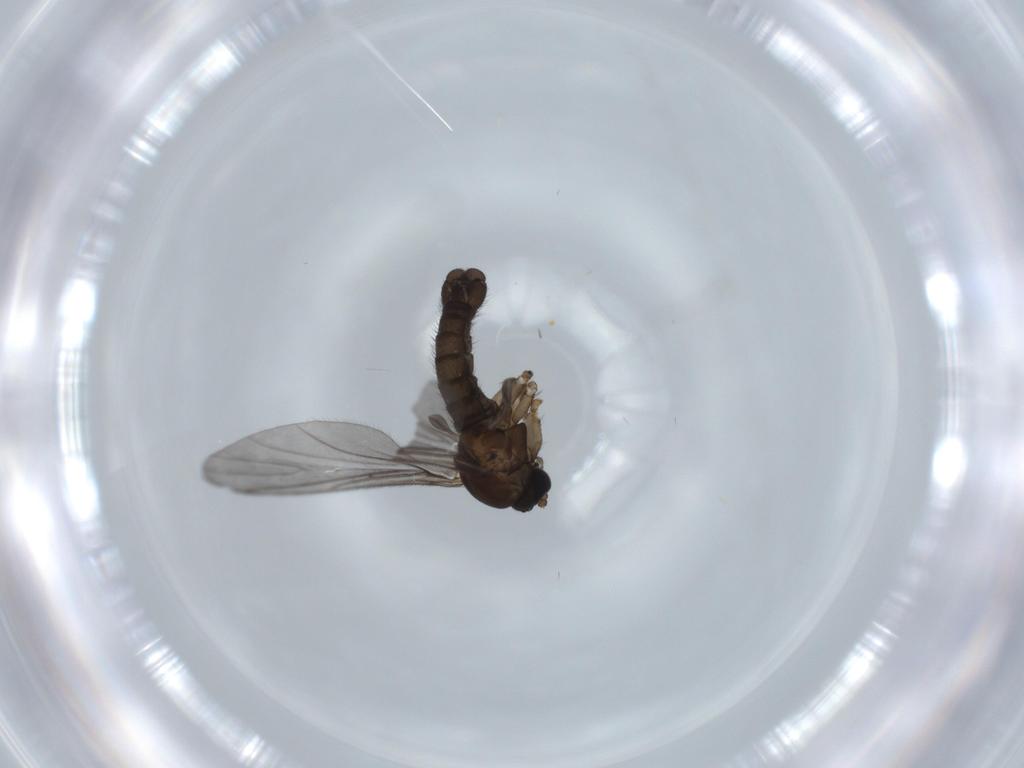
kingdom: Animalia
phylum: Arthropoda
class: Insecta
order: Diptera
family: Sciaridae
